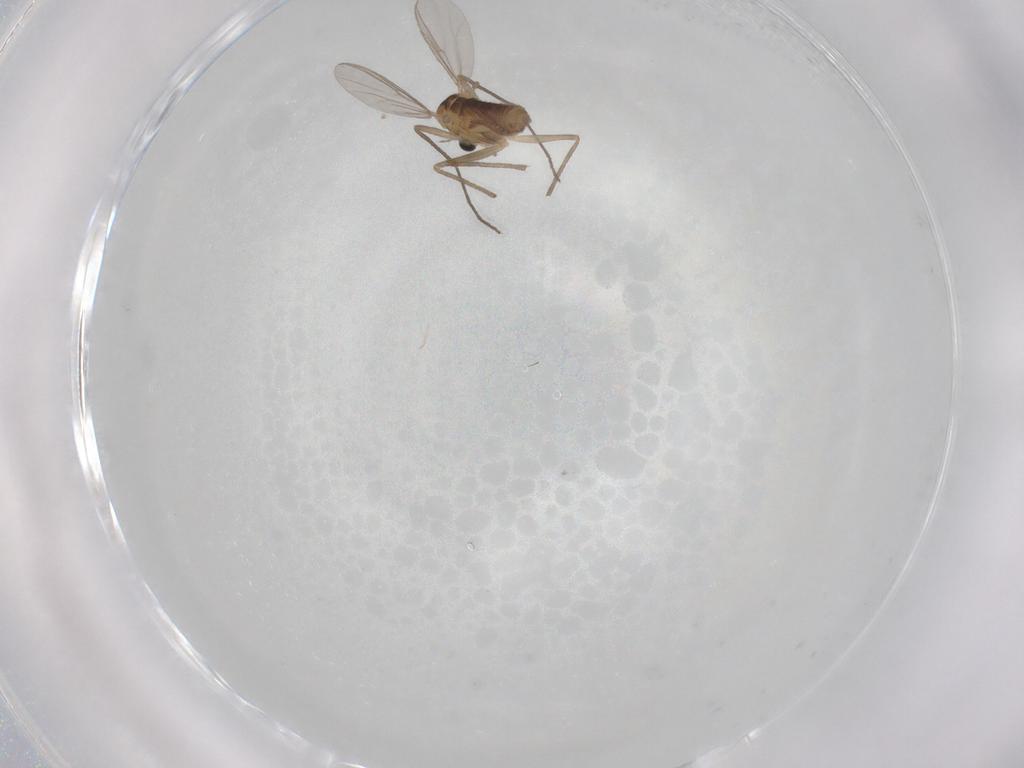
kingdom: Animalia
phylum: Arthropoda
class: Insecta
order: Diptera
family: Chironomidae
